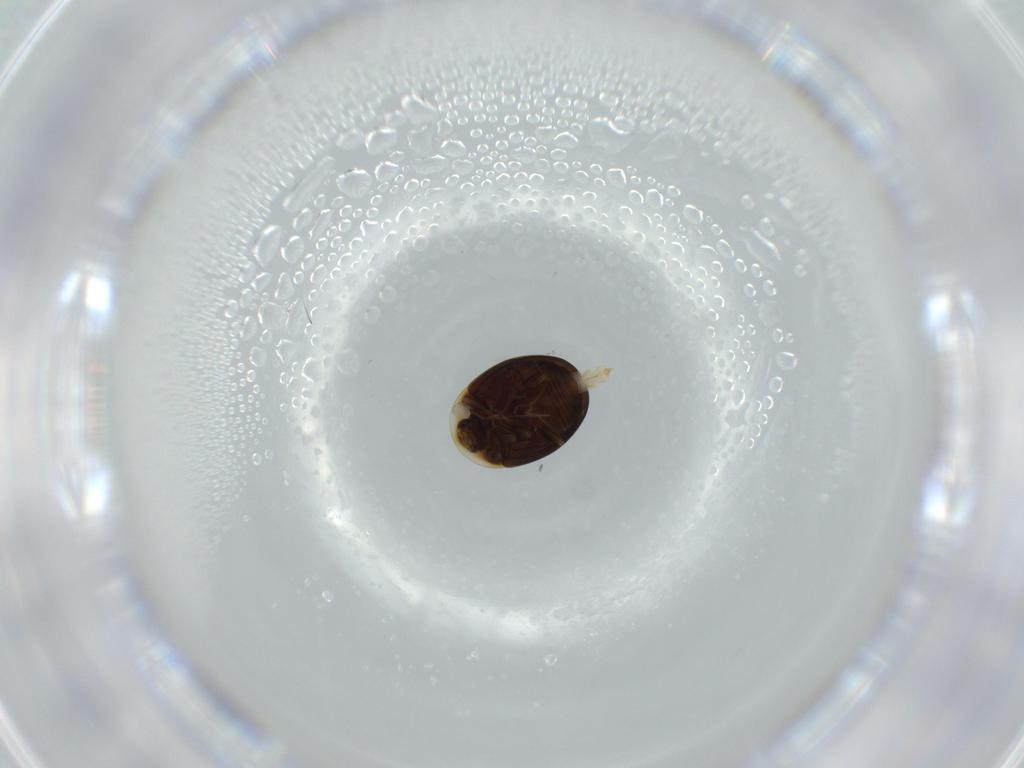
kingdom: Animalia
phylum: Arthropoda
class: Insecta
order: Coleoptera
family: Corylophidae
